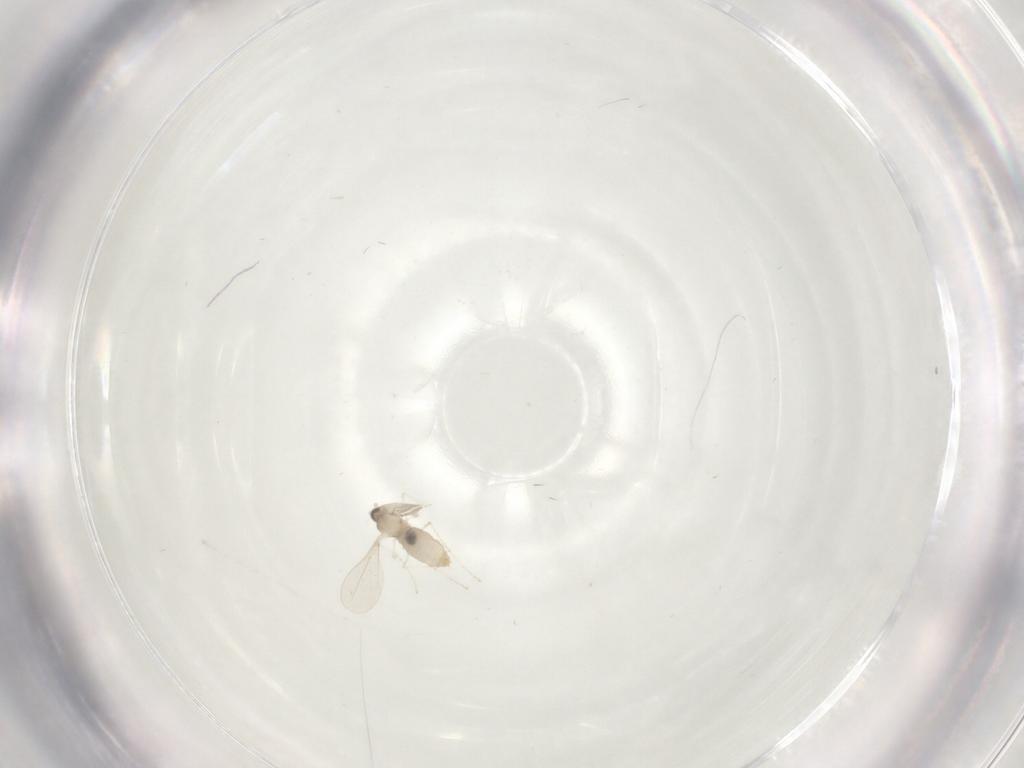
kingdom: Animalia
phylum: Arthropoda
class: Insecta
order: Diptera
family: Cecidomyiidae
